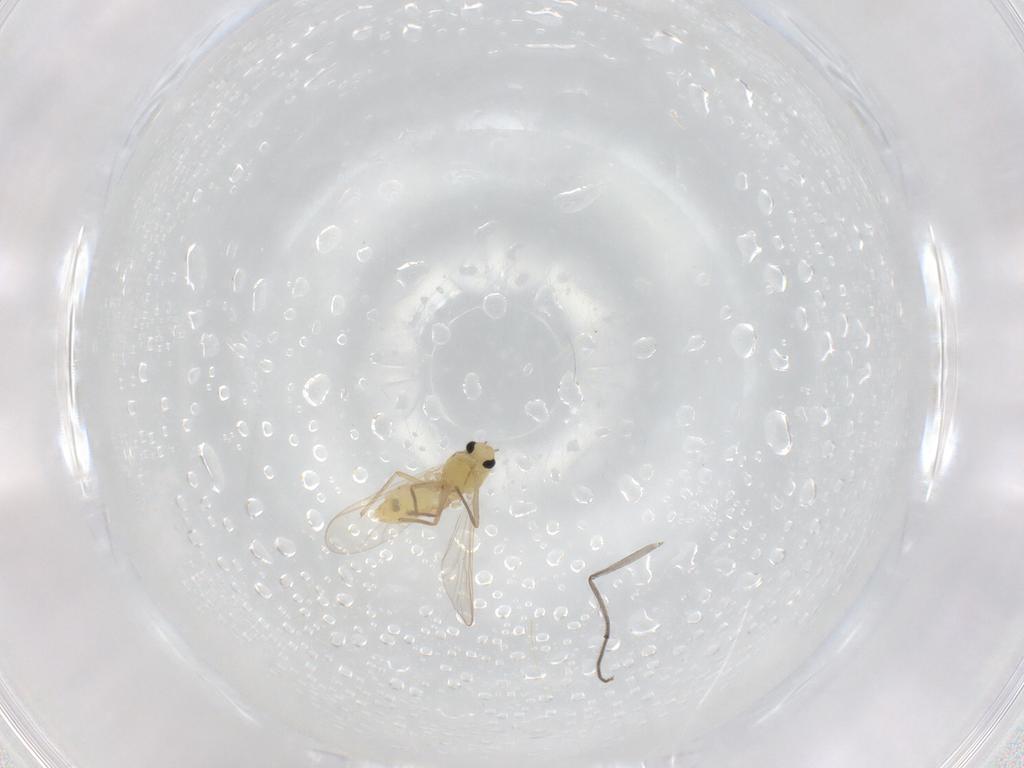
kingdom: Animalia
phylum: Arthropoda
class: Insecta
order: Diptera
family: Chironomidae
